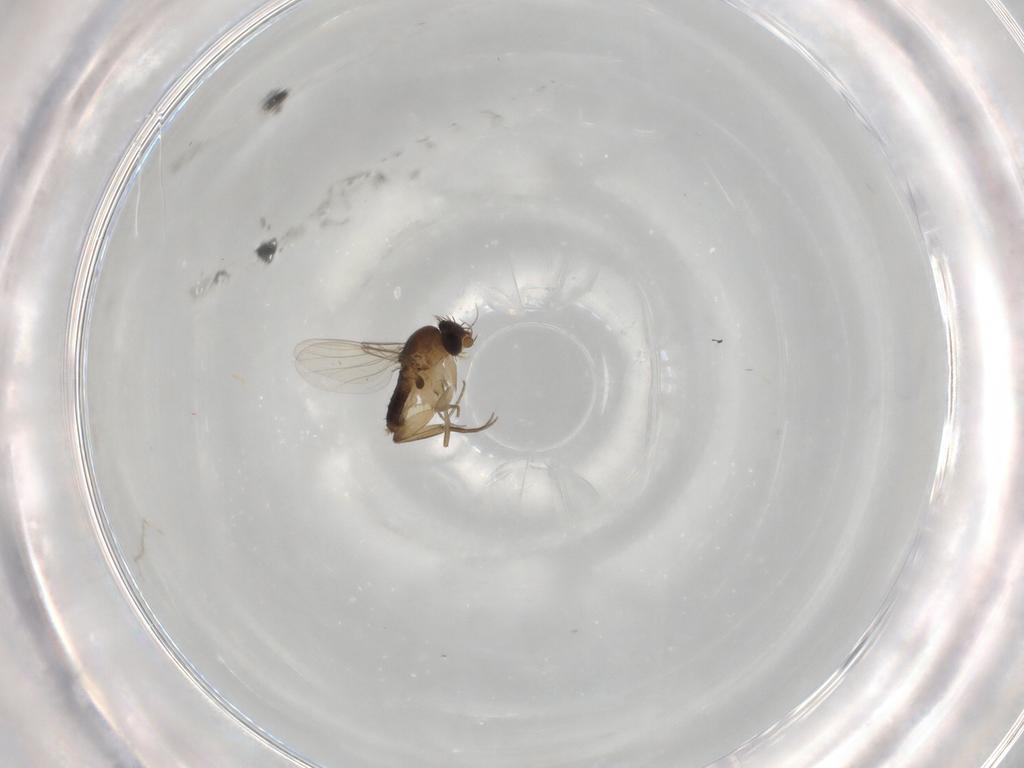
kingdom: Animalia
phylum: Arthropoda
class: Insecta
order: Diptera
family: Phoridae
